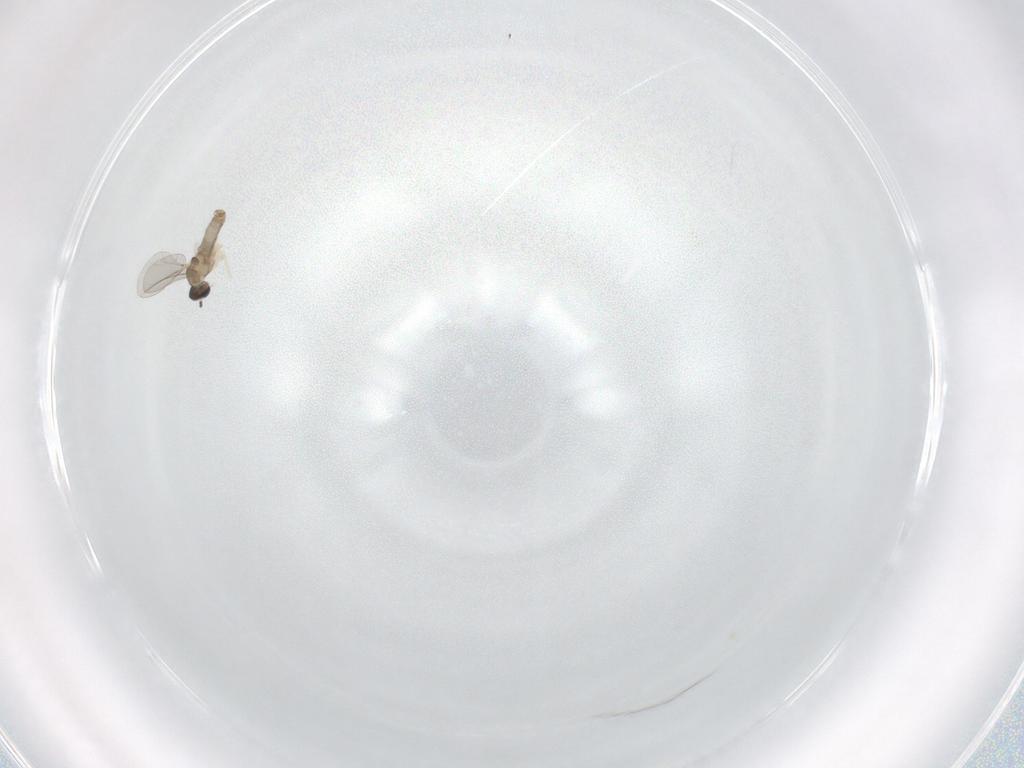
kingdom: Animalia
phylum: Arthropoda
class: Insecta
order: Diptera
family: Cecidomyiidae
